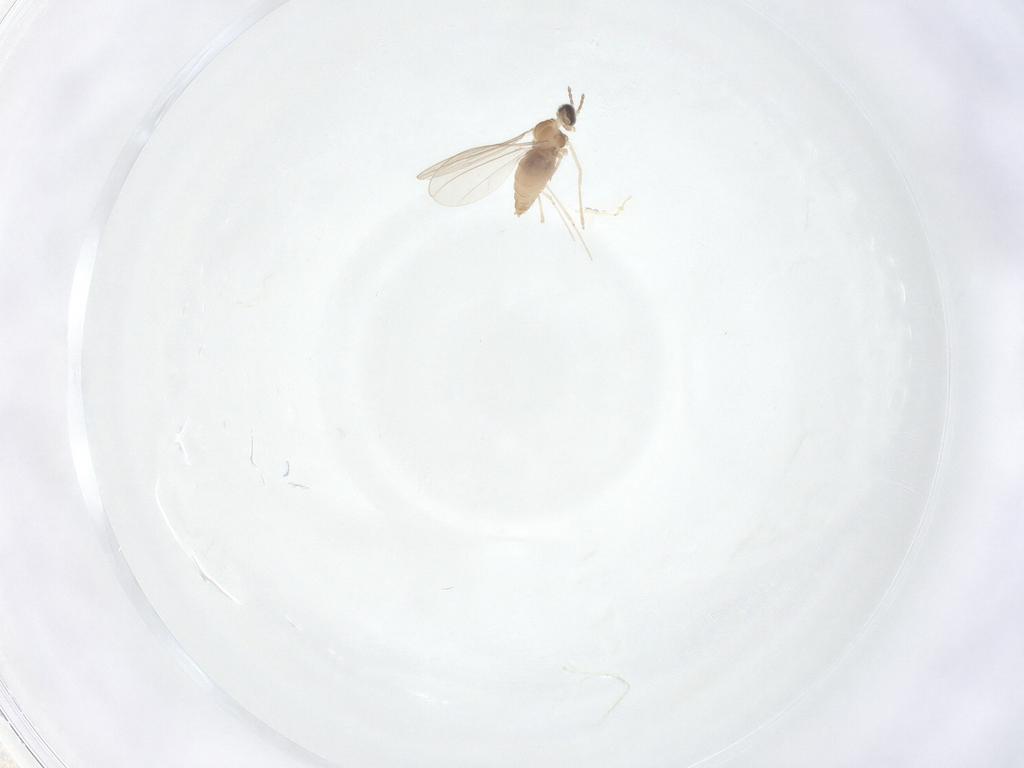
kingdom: Animalia
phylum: Arthropoda
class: Insecta
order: Diptera
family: Cecidomyiidae
